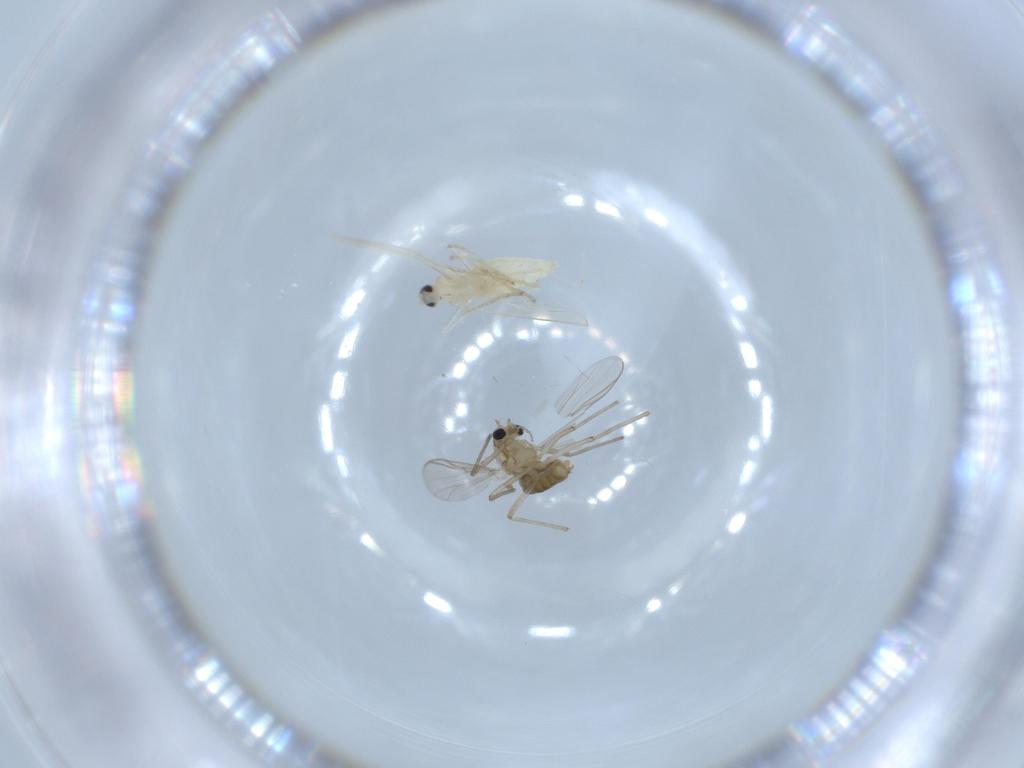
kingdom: Animalia
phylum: Arthropoda
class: Insecta
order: Diptera
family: Chironomidae
